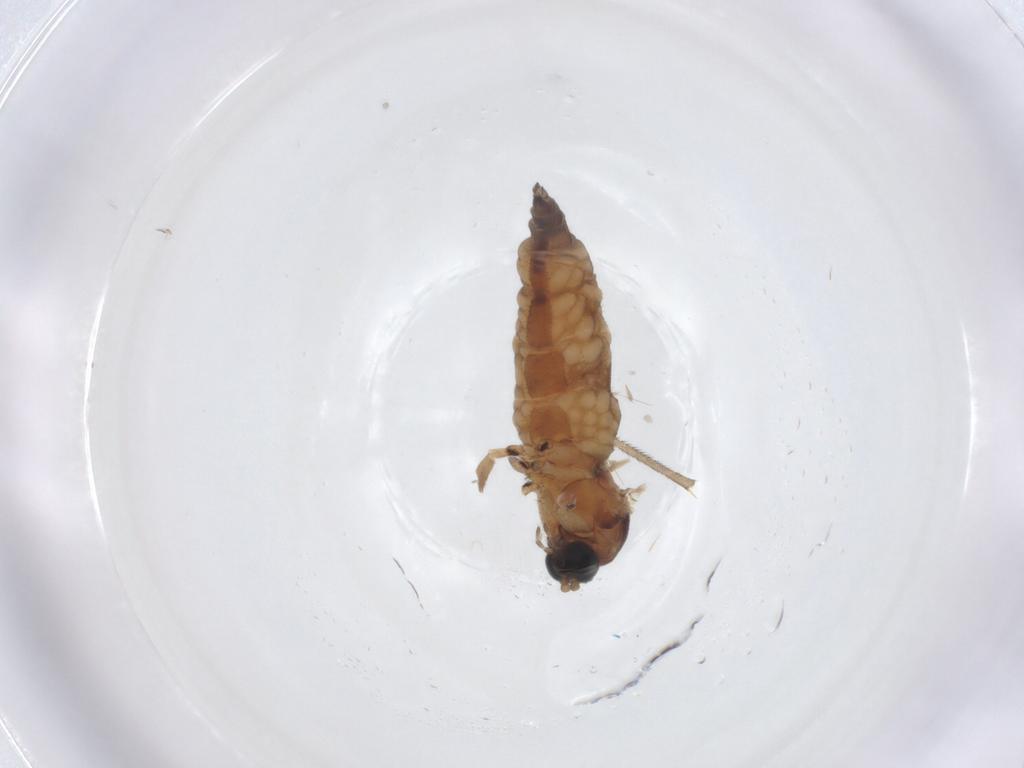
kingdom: Animalia
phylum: Arthropoda
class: Insecta
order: Diptera
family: Sciaridae
